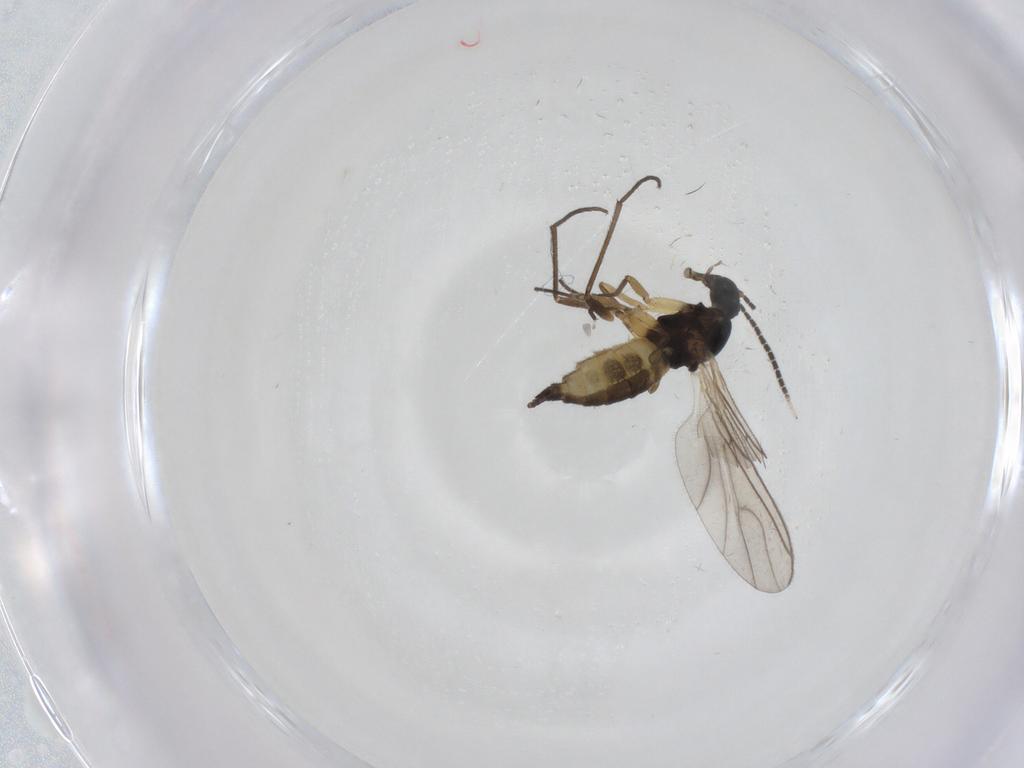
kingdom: Animalia
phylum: Arthropoda
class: Insecta
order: Diptera
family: Sciaridae
